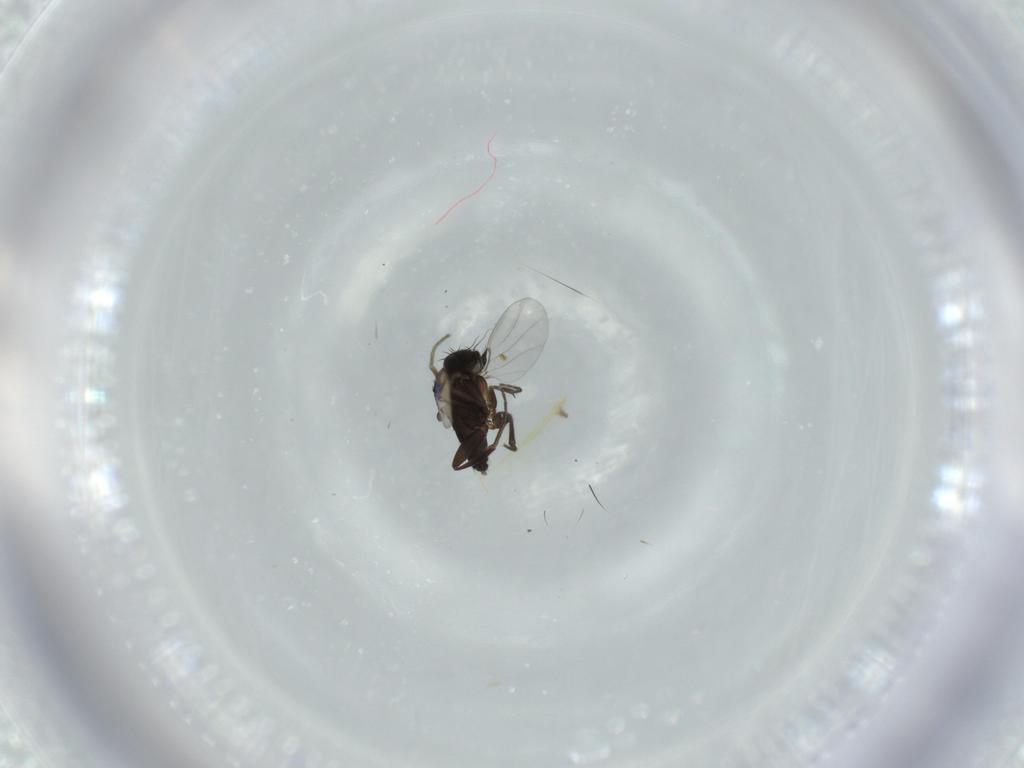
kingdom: Animalia
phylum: Arthropoda
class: Insecta
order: Diptera
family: Phoridae
